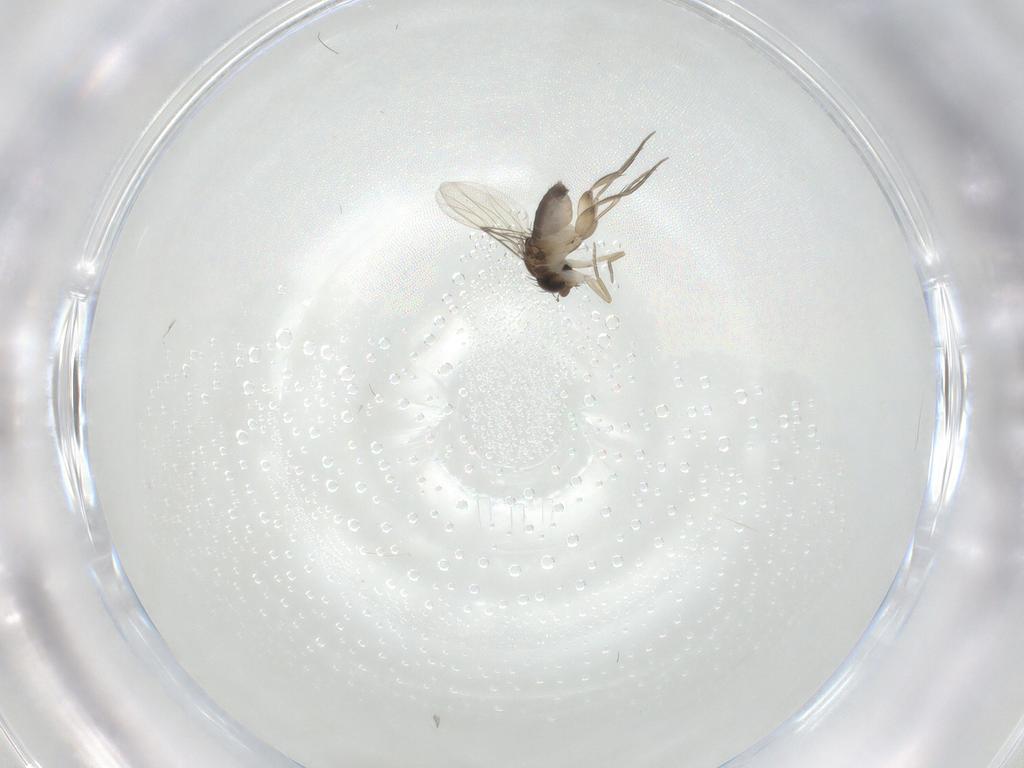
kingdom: Animalia
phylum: Arthropoda
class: Insecta
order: Diptera
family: Phoridae
